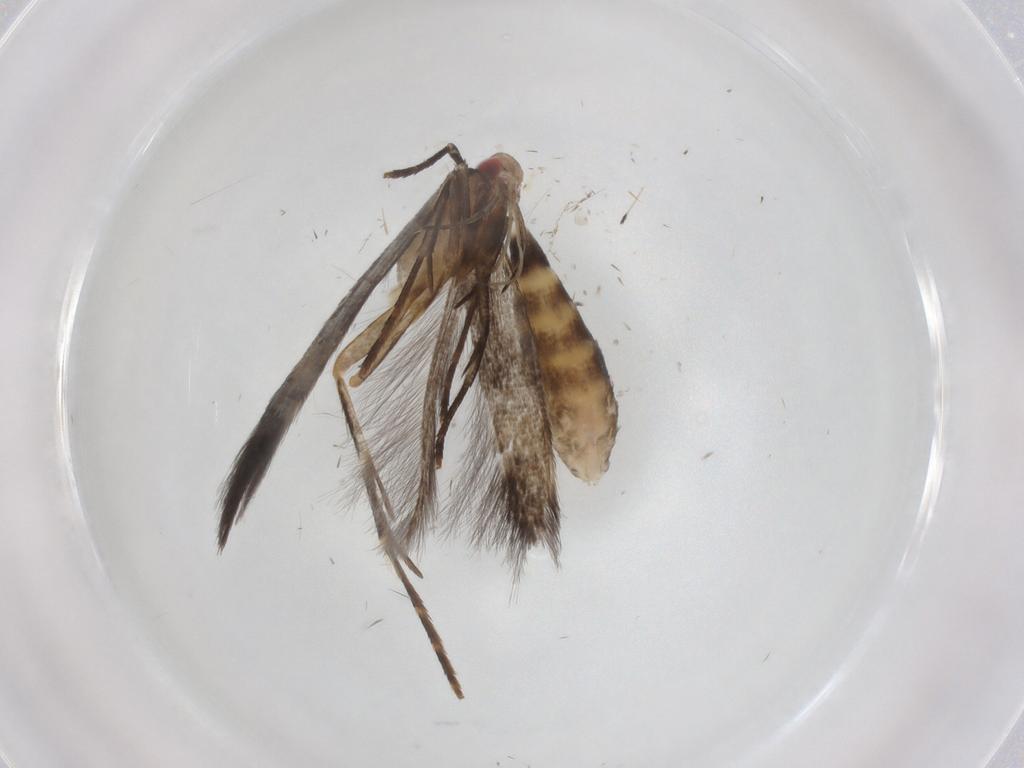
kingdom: Animalia
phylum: Arthropoda
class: Insecta
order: Lepidoptera
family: Cosmopterigidae
